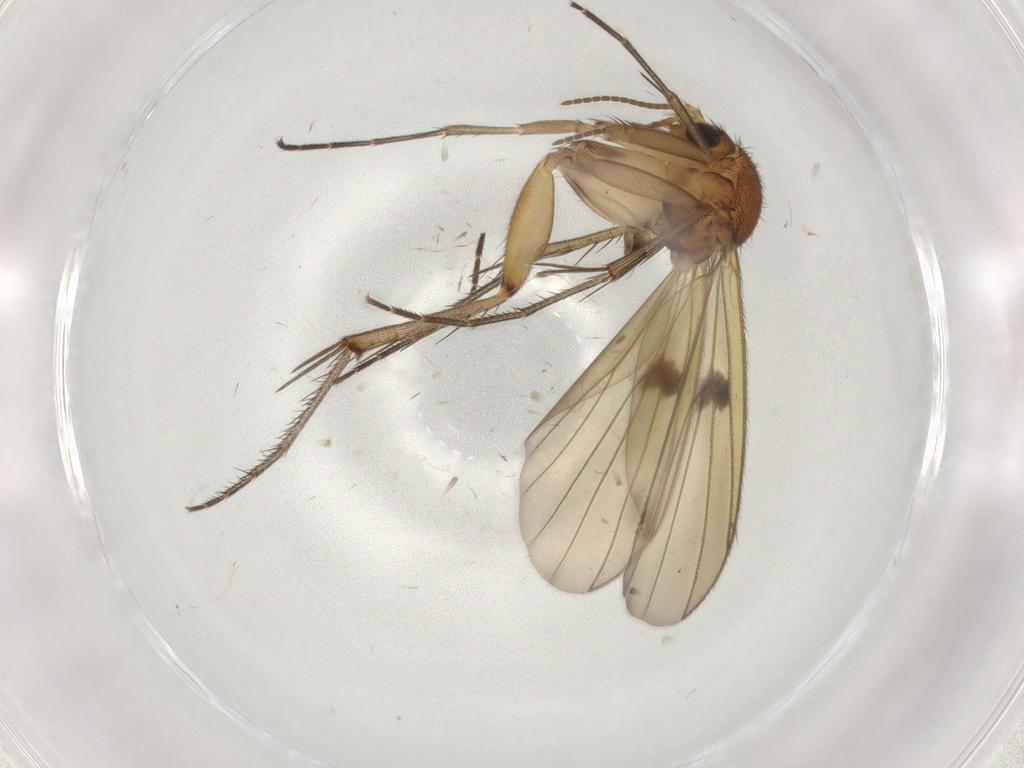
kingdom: Animalia
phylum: Arthropoda
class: Insecta
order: Diptera
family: Mycetophilidae
